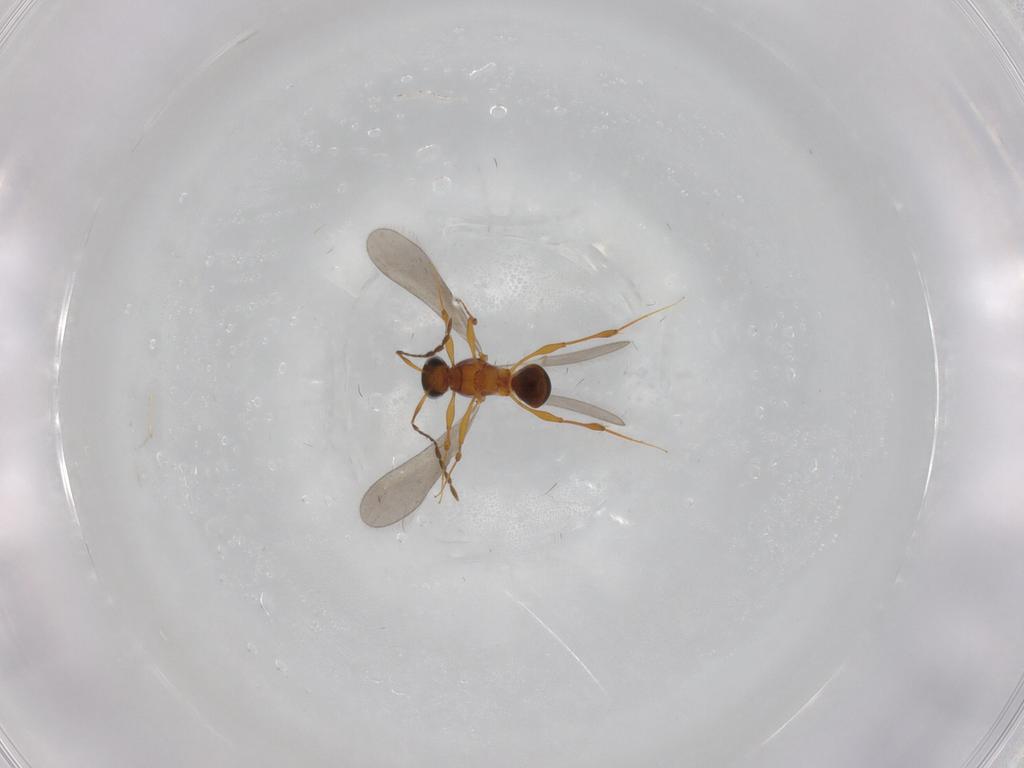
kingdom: Animalia
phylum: Arthropoda
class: Insecta
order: Hymenoptera
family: Platygastridae
